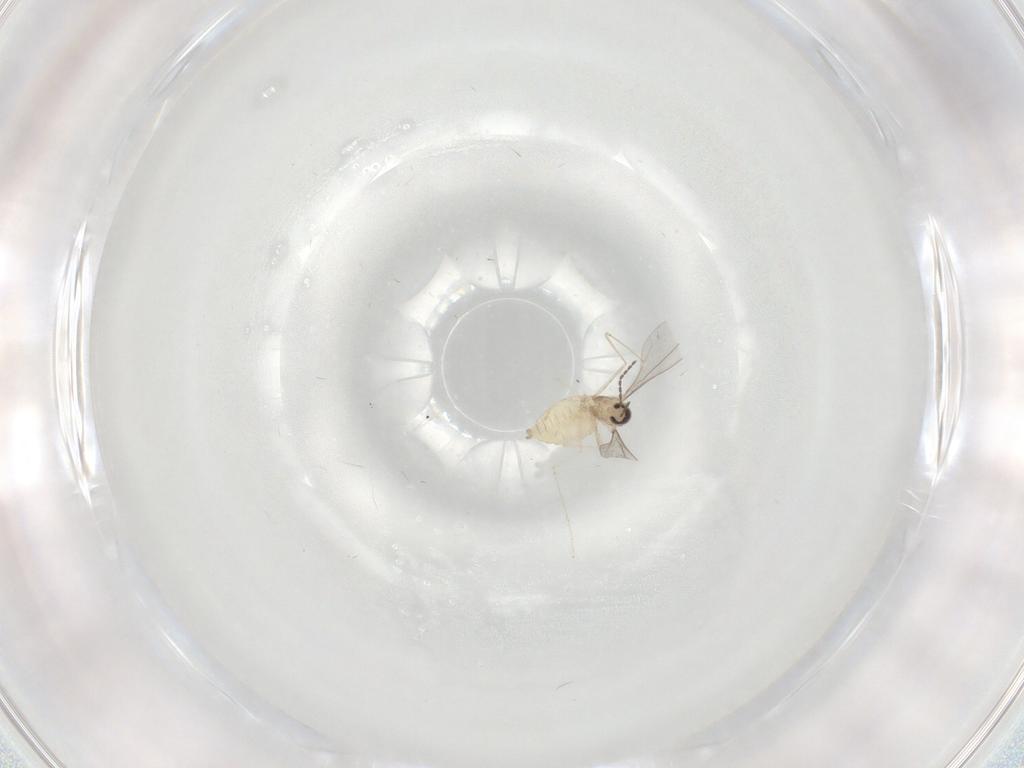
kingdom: Animalia
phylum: Arthropoda
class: Insecta
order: Diptera
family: Cecidomyiidae
